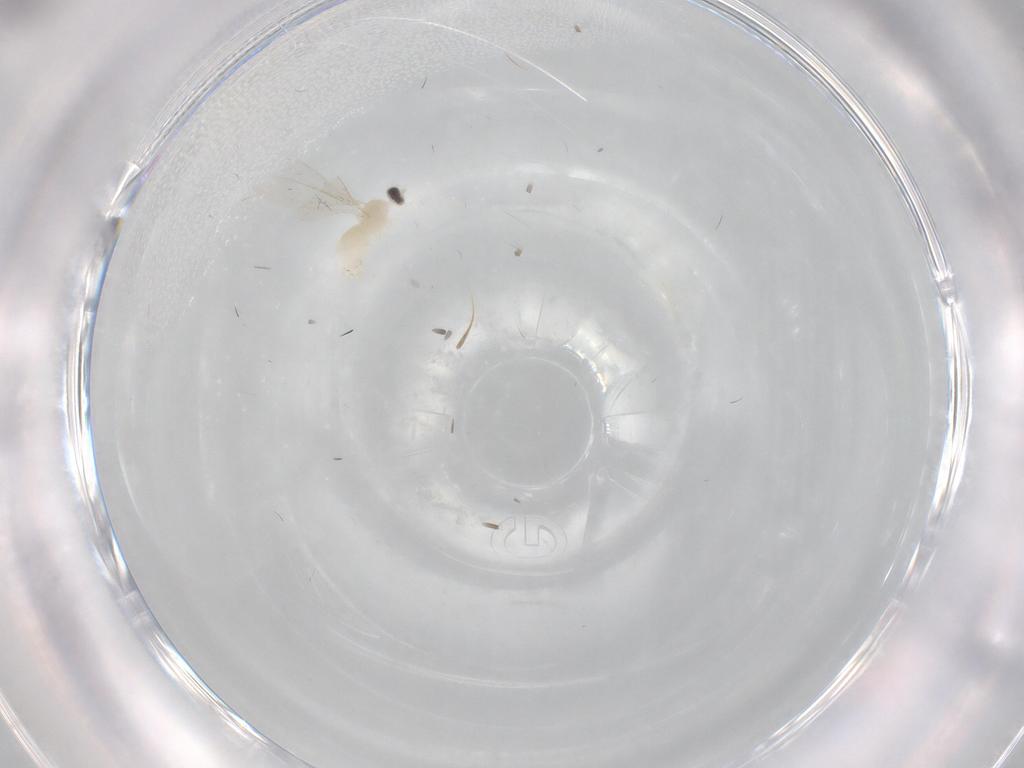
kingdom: Animalia
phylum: Arthropoda
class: Insecta
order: Diptera
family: Cecidomyiidae
